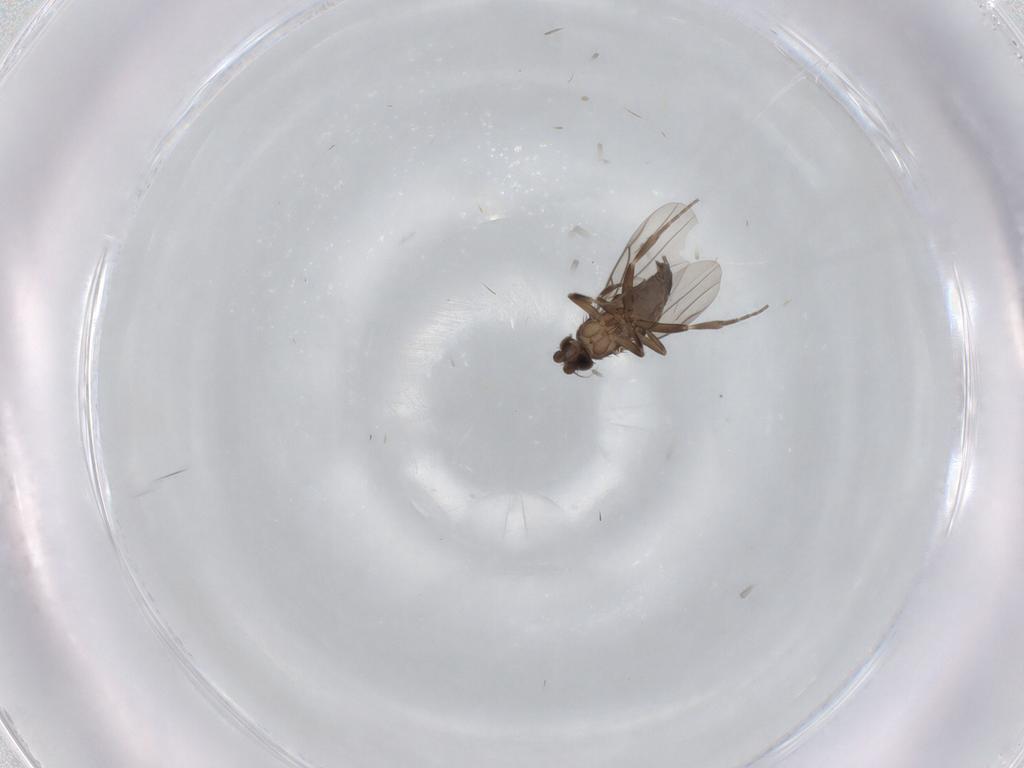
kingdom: Animalia
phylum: Arthropoda
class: Insecta
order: Diptera
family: Phoridae
